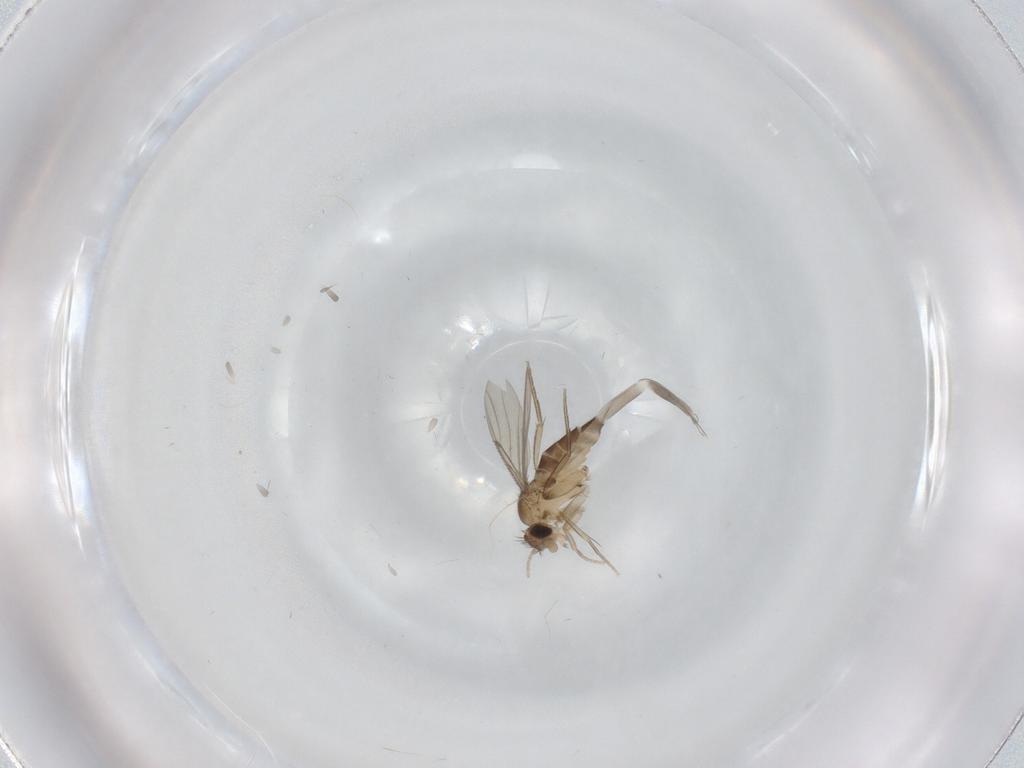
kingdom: Animalia
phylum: Arthropoda
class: Insecta
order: Diptera
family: Phoridae
